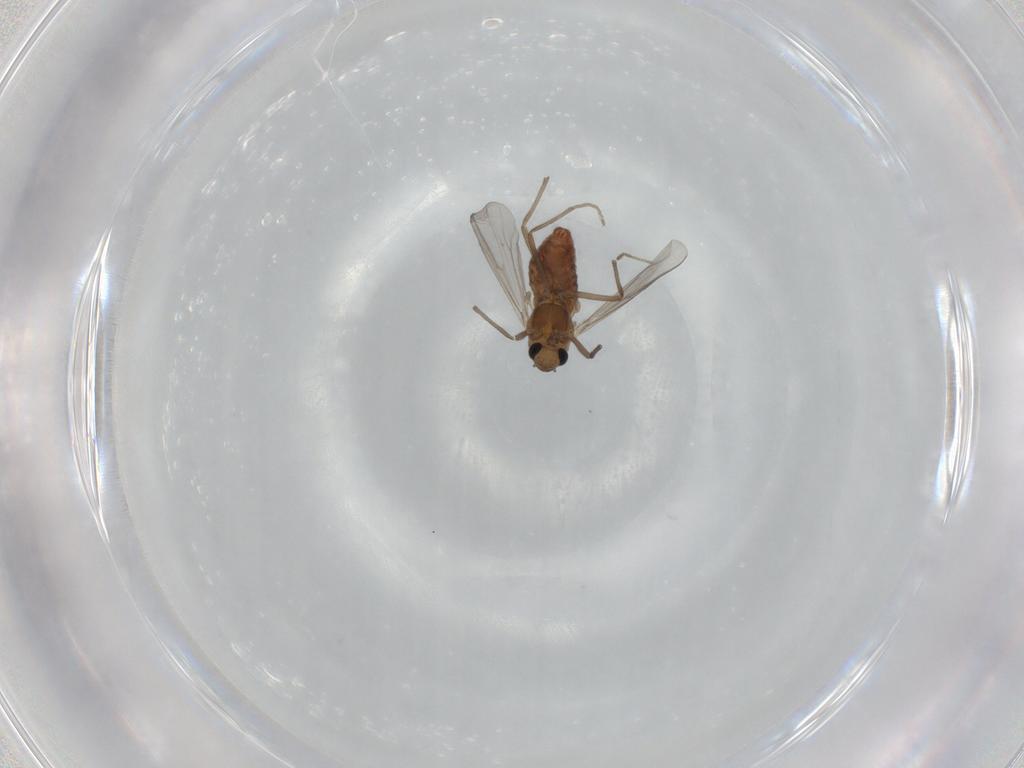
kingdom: Animalia
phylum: Arthropoda
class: Insecta
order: Diptera
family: Chironomidae
